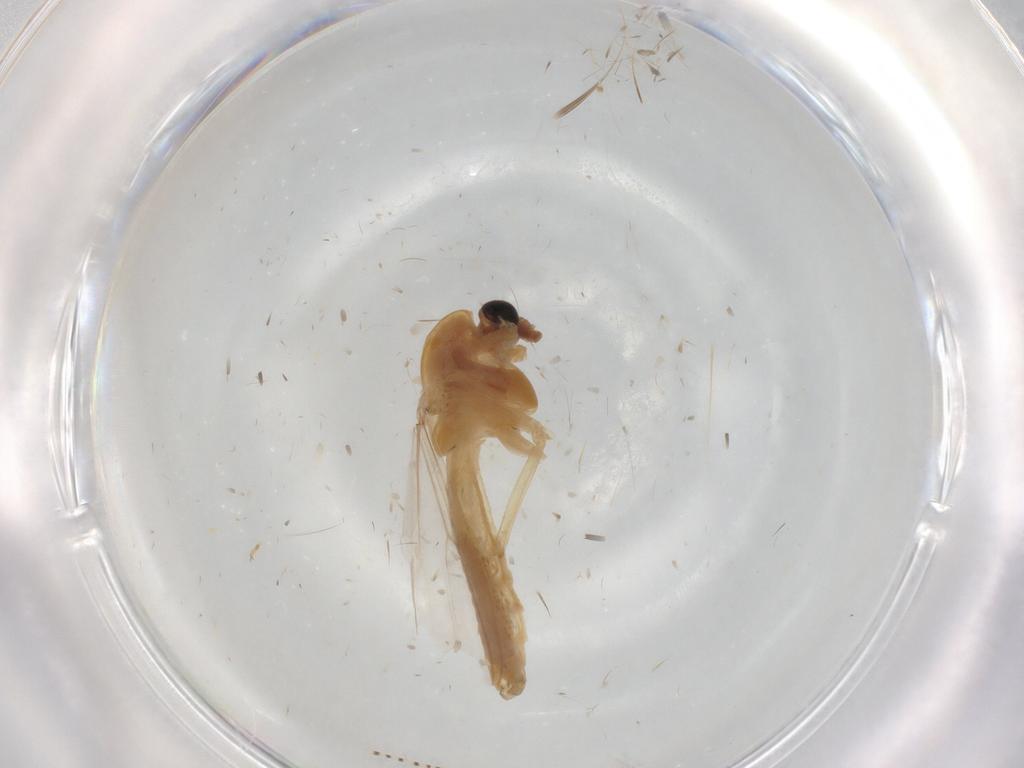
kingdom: Animalia
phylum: Arthropoda
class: Insecta
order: Diptera
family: Chironomidae
